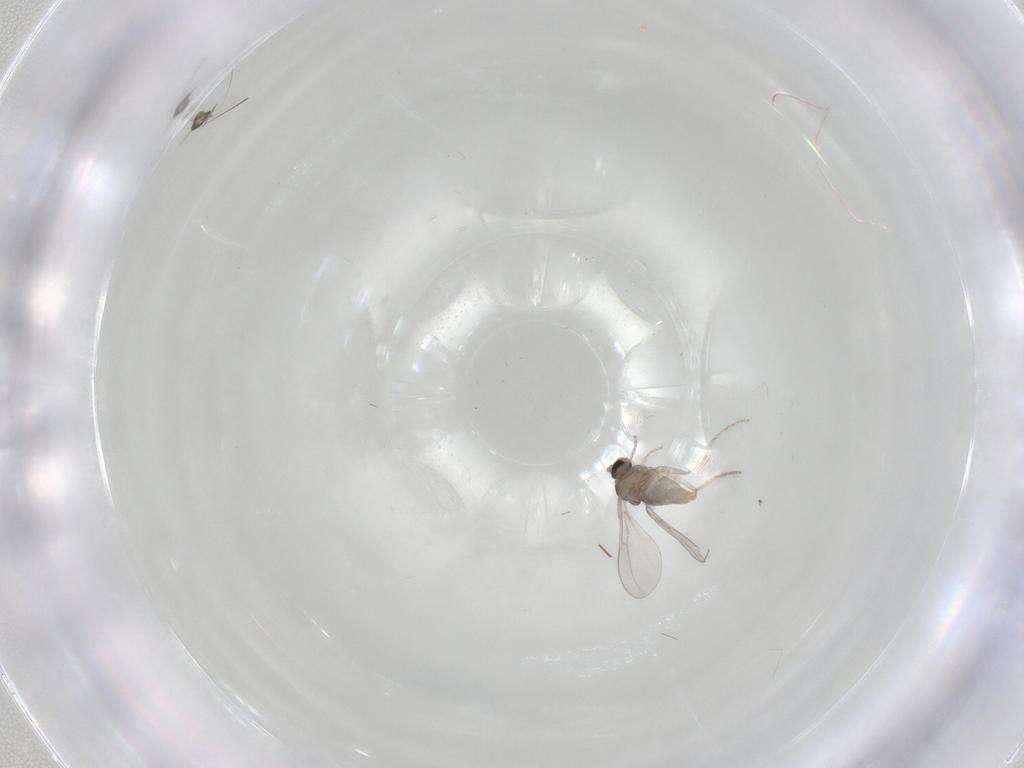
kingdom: Animalia
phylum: Arthropoda
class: Insecta
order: Diptera
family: Cecidomyiidae
